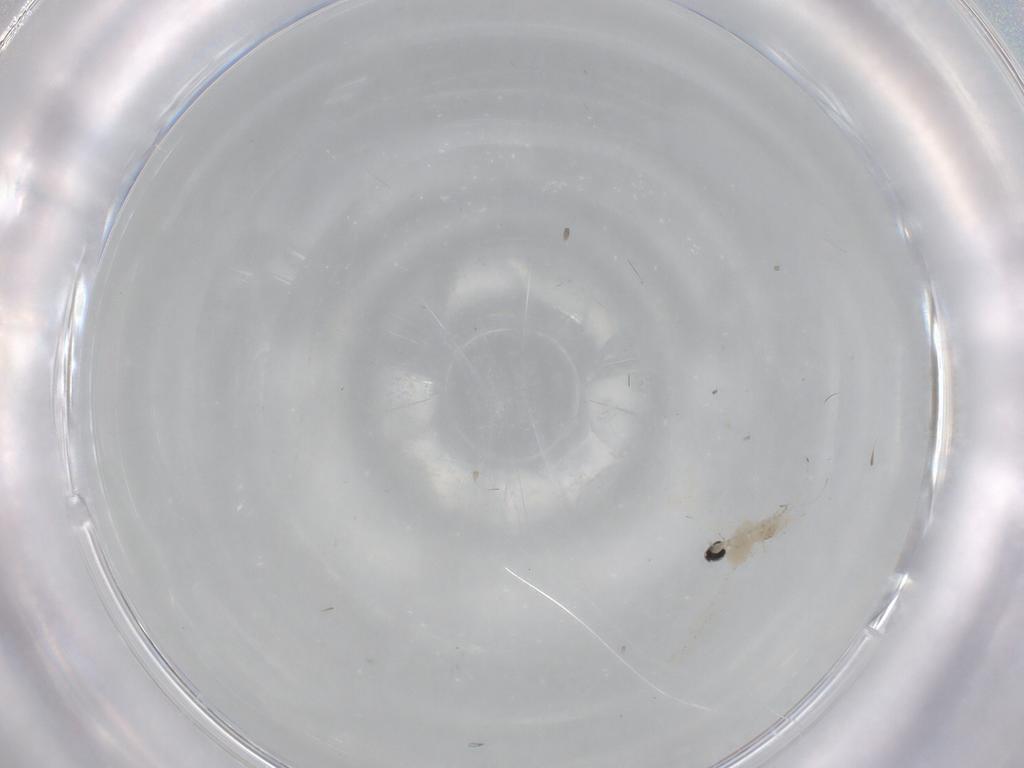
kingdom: Animalia
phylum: Arthropoda
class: Insecta
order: Diptera
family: Cecidomyiidae
